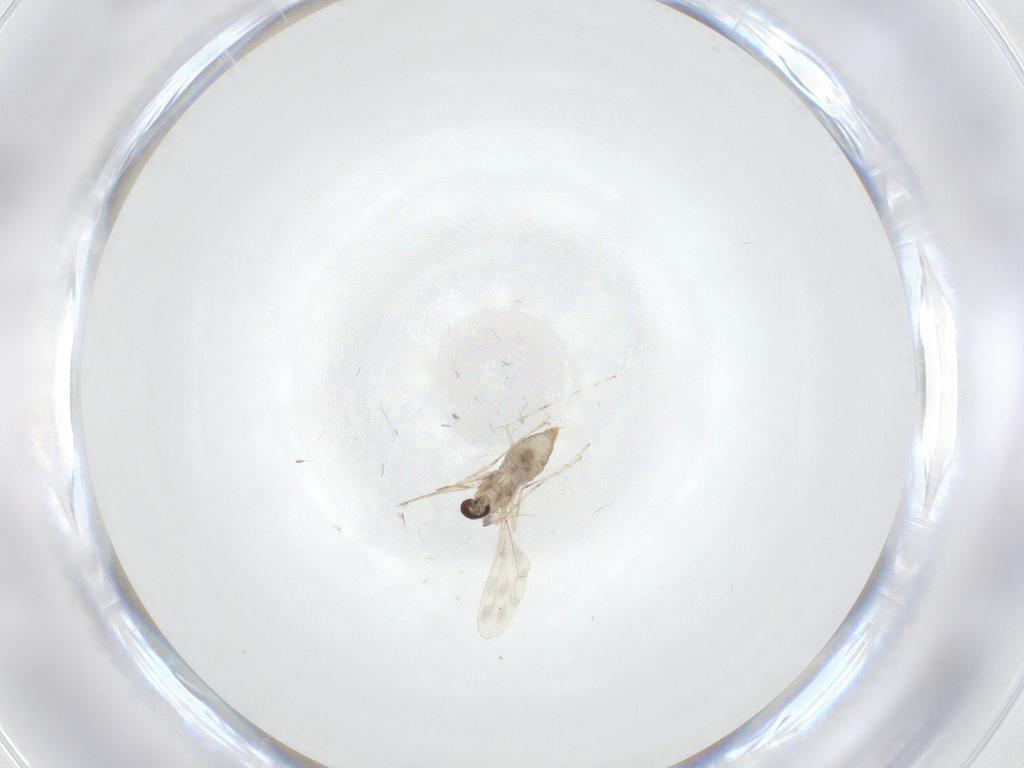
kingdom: Animalia
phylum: Arthropoda
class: Insecta
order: Diptera
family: Cecidomyiidae
